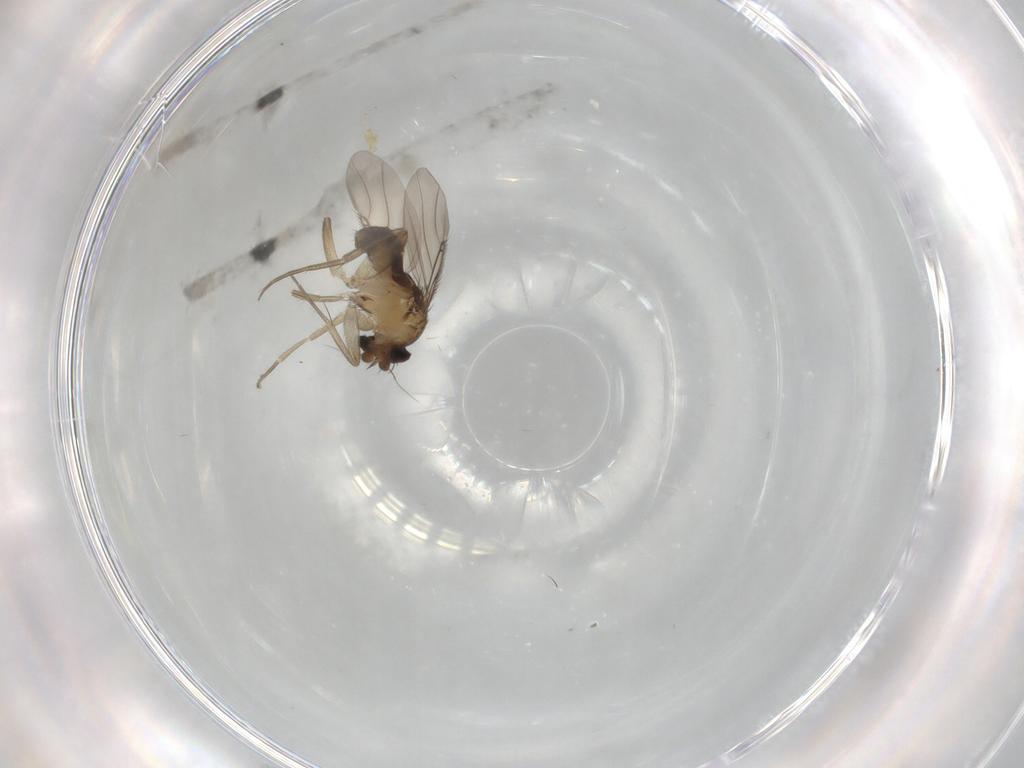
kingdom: Animalia
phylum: Arthropoda
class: Insecta
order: Diptera
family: Phoridae
